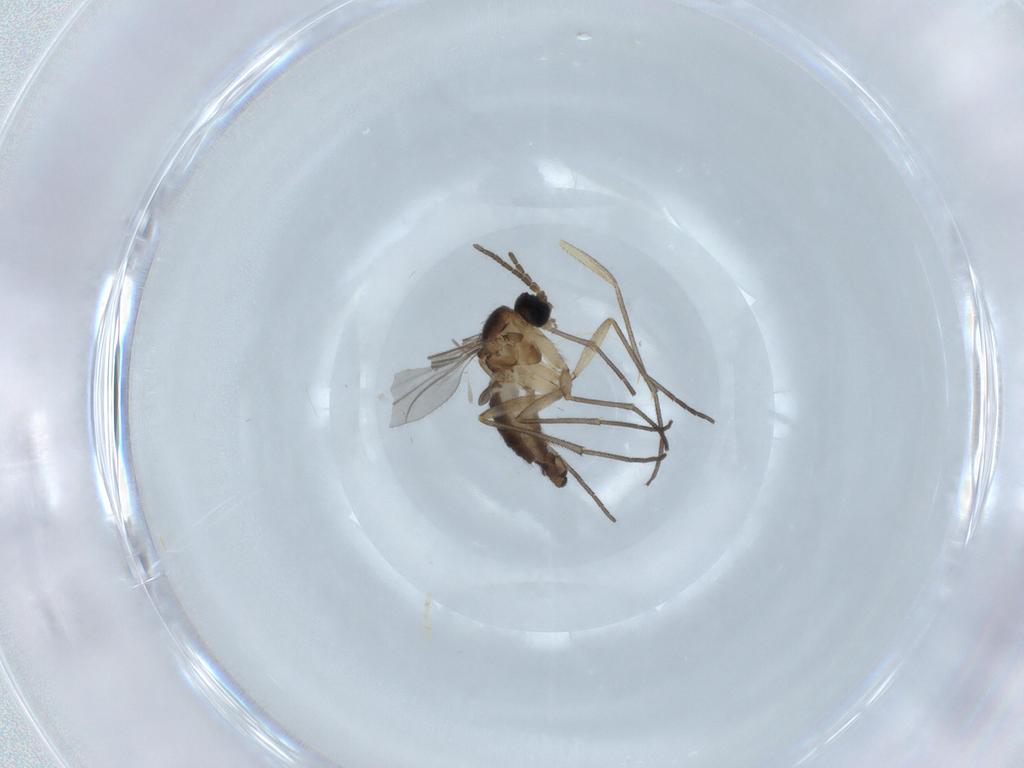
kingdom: Animalia
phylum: Arthropoda
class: Insecta
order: Diptera
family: Sciaridae
